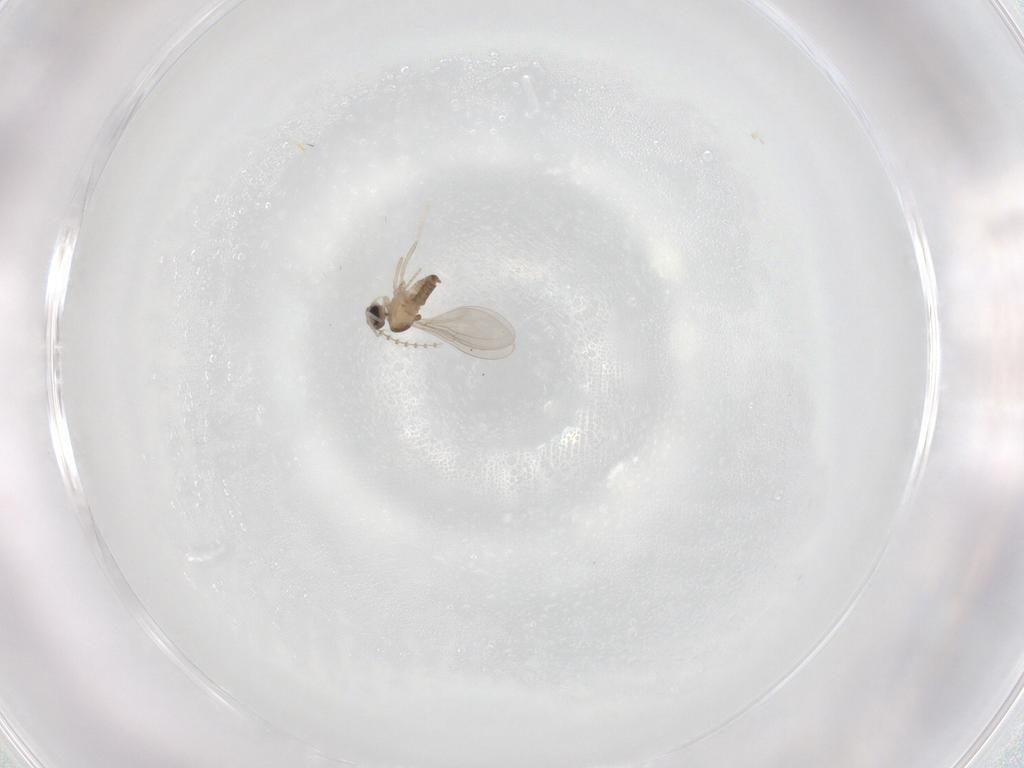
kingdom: Animalia
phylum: Arthropoda
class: Insecta
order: Diptera
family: Cecidomyiidae
